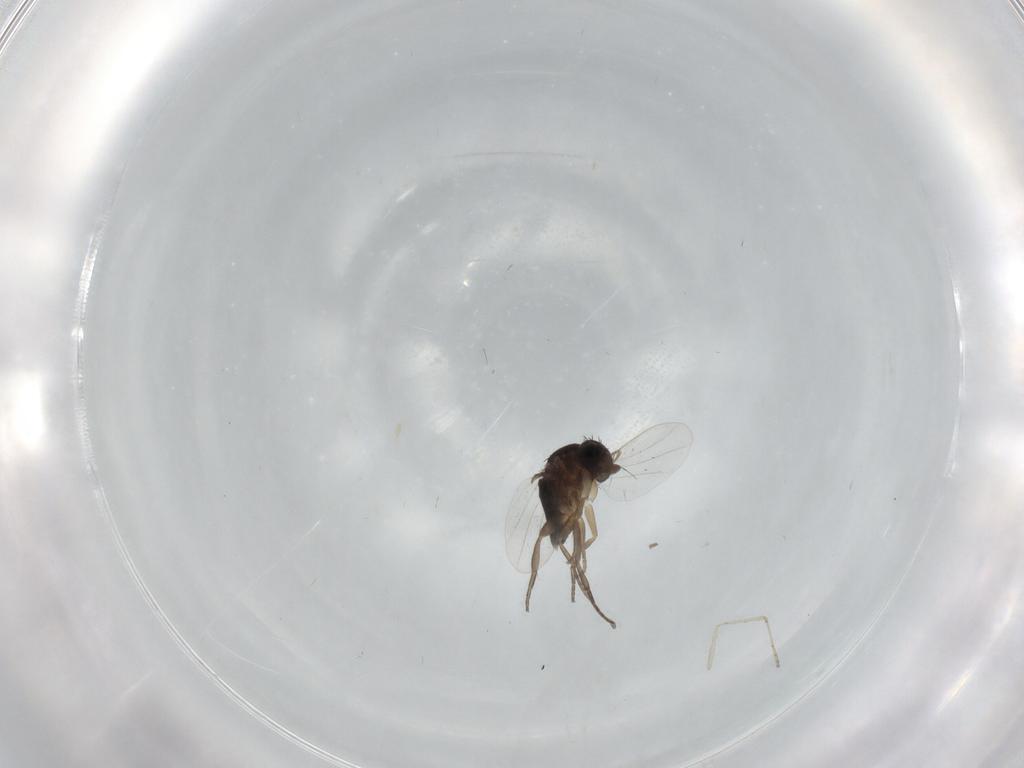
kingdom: Animalia
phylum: Arthropoda
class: Insecta
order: Diptera
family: Phoridae
